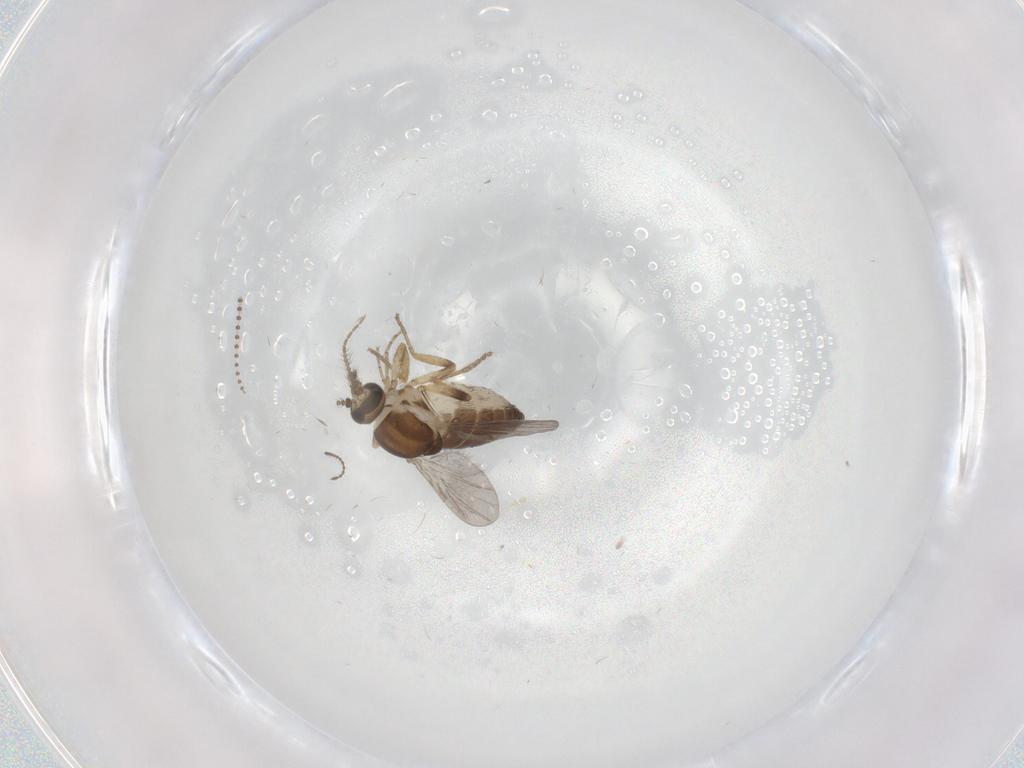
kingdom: Animalia
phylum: Arthropoda
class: Insecta
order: Diptera
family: Ceratopogonidae
